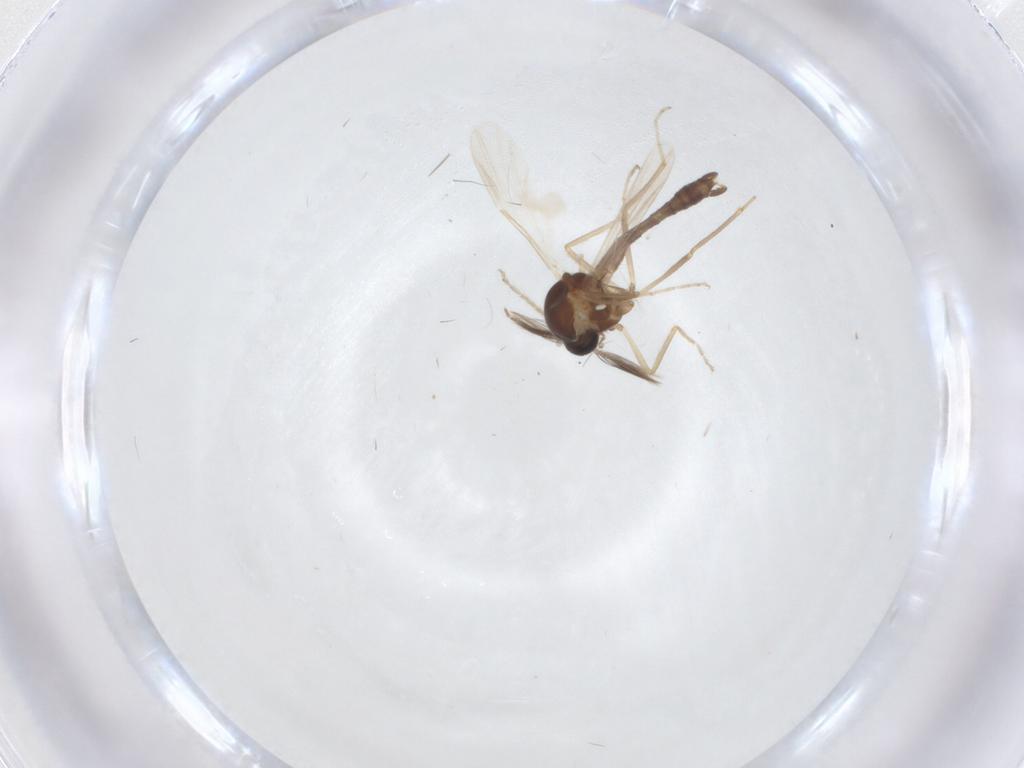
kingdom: Animalia
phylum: Arthropoda
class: Insecta
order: Diptera
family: Ceratopogonidae
